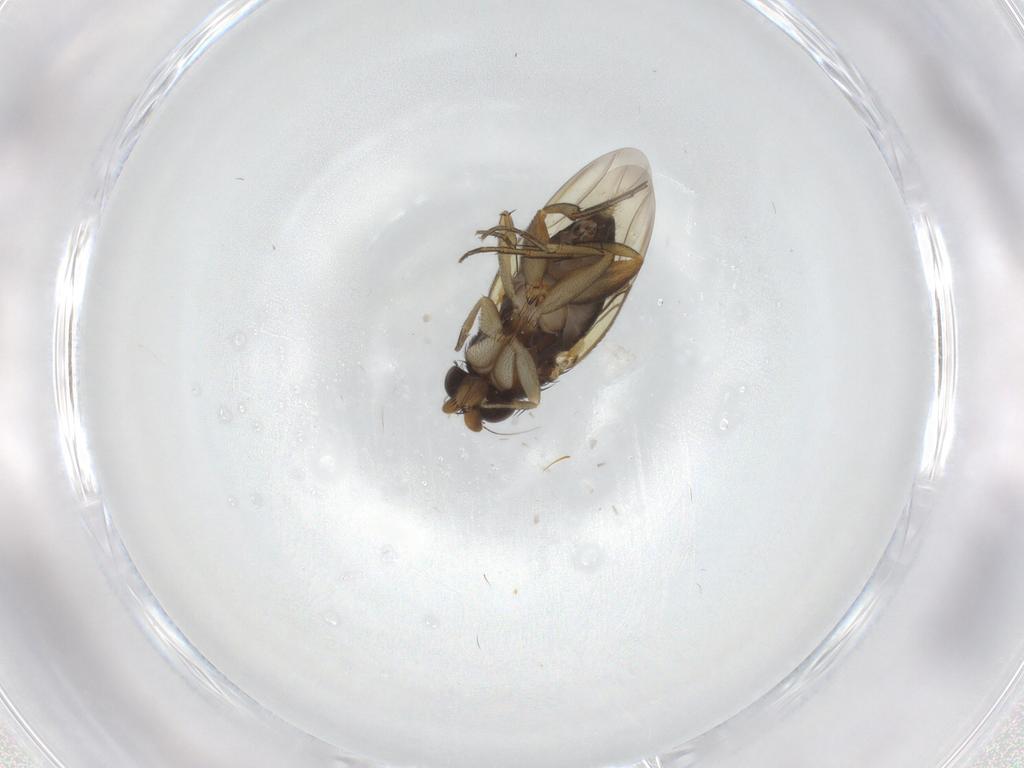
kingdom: Animalia
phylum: Arthropoda
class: Insecta
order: Diptera
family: Phoridae
